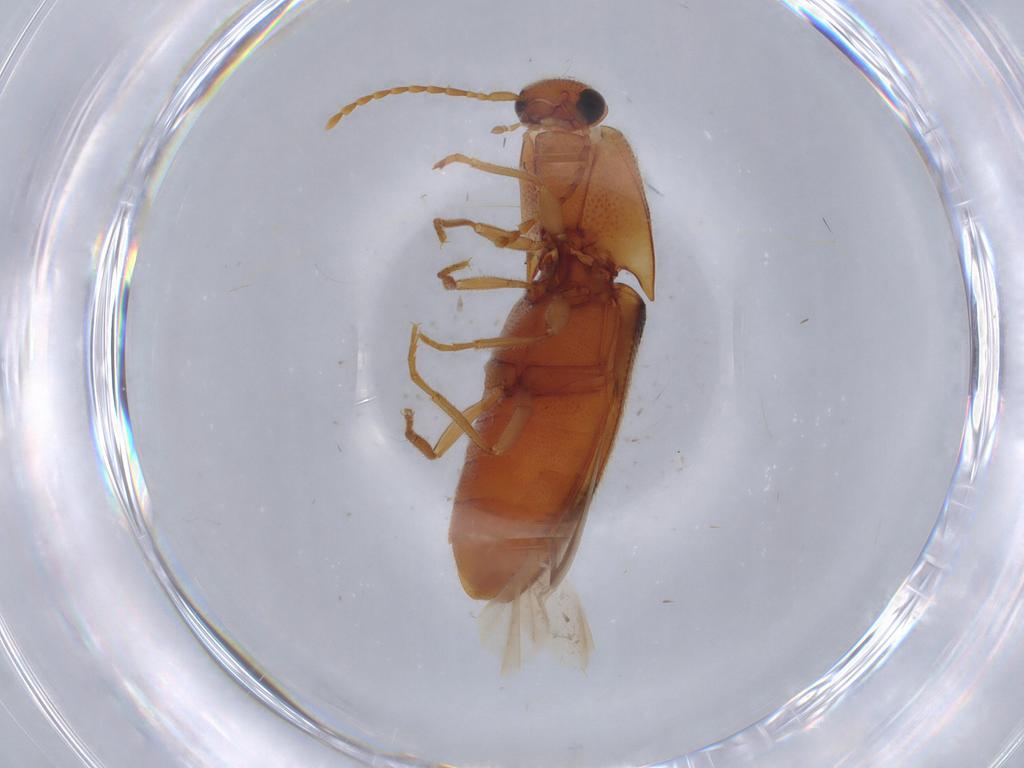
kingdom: Animalia
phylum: Arthropoda
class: Insecta
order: Coleoptera
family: Elateridae
